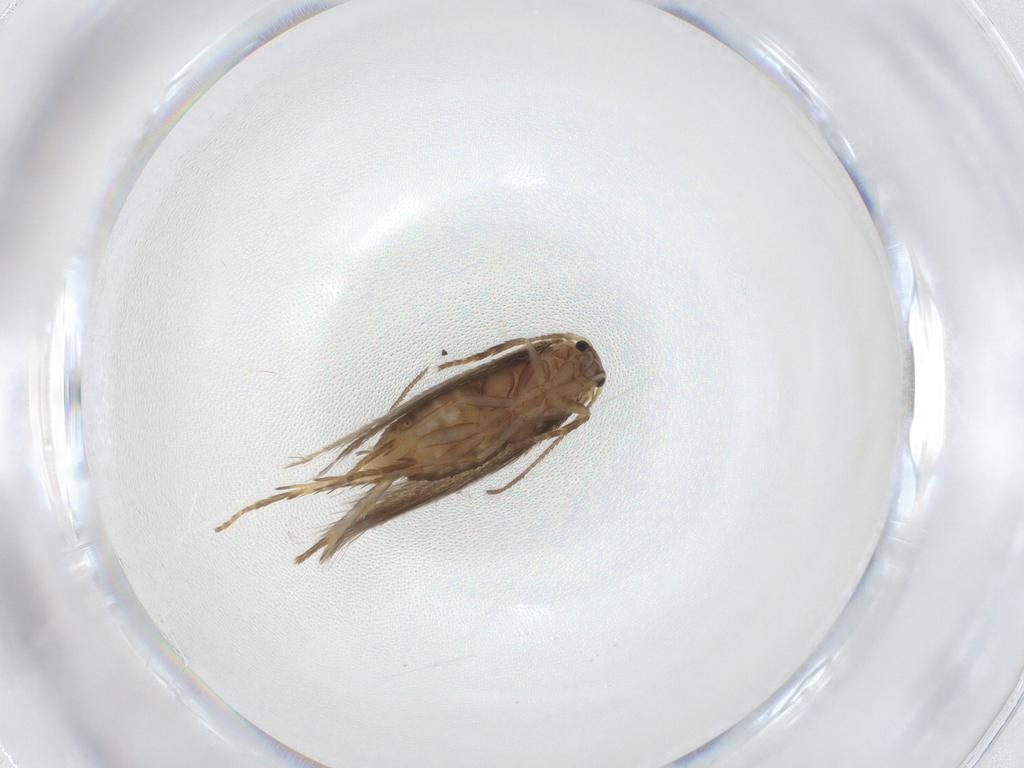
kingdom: Animalia
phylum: Arthropoda
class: Insecta
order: Lepidoptera
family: Nepticulidae
